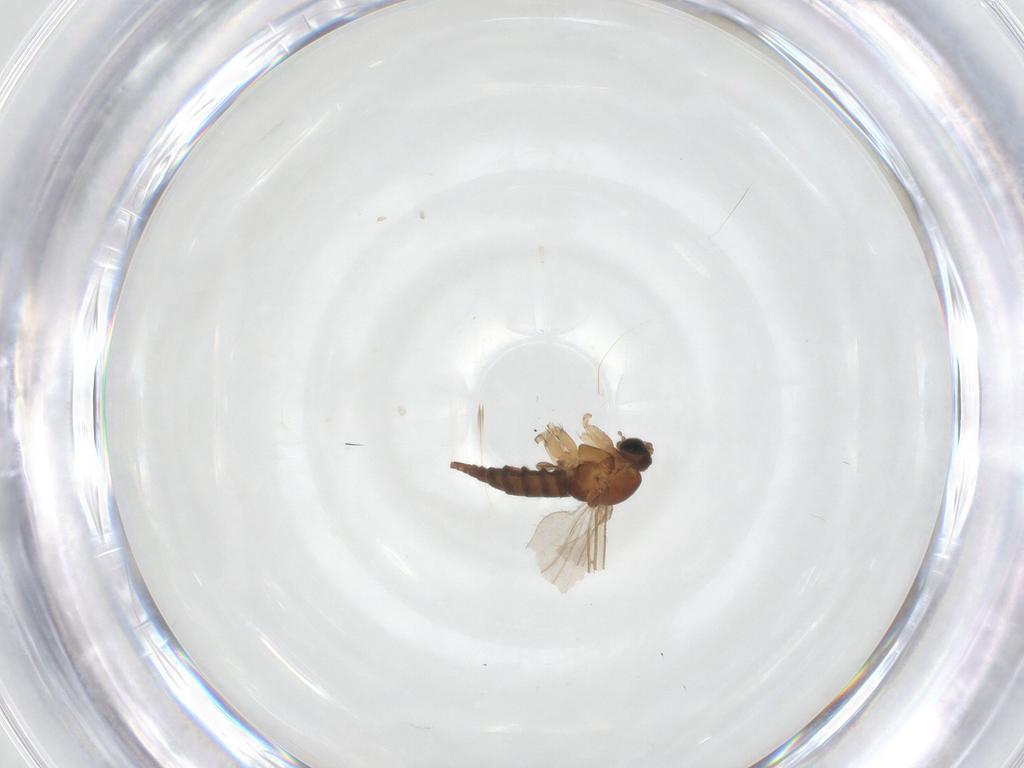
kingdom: Animalia
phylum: Arthropoda
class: Insecta
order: Diptera
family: Sciaridae
